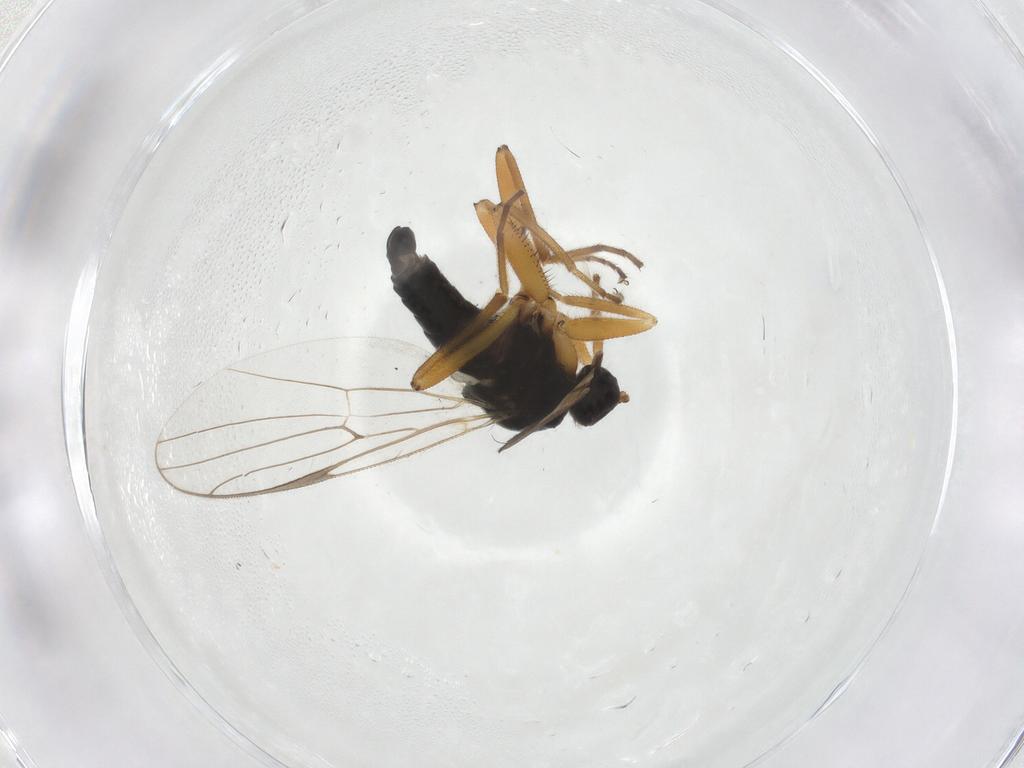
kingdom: Animalia
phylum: Arthropoda
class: Insecta
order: Diptera
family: Hybotidae
